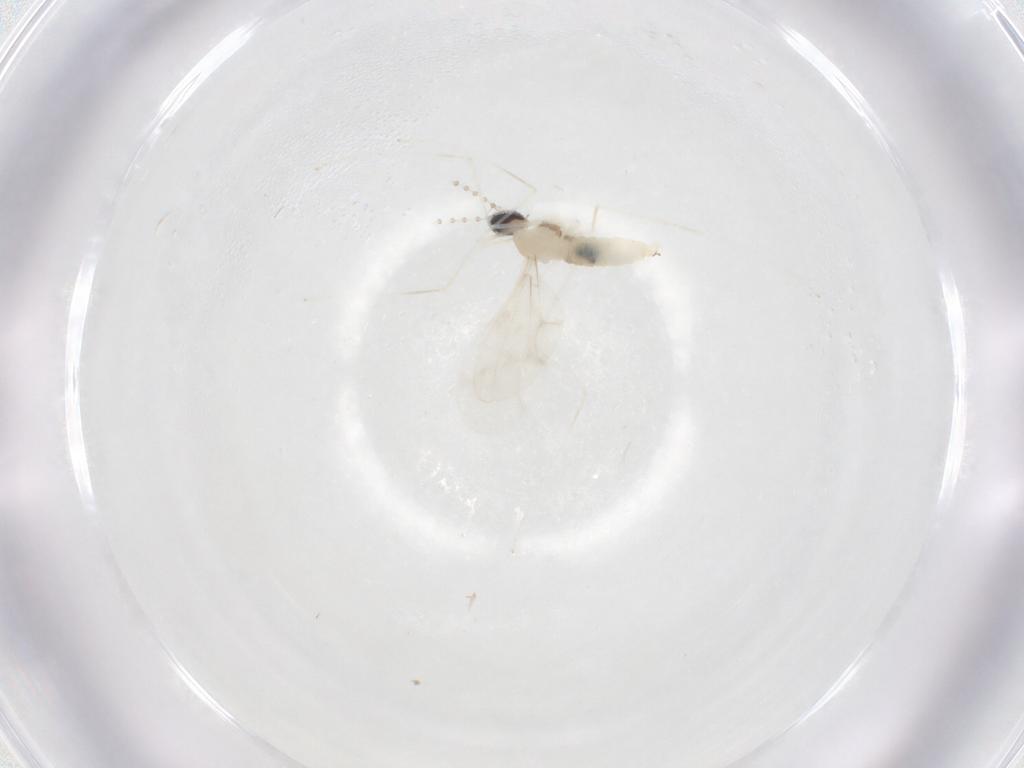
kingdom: Animalia
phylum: Arthropoda
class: Insecta
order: Diptera
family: Cecidomyiidae
